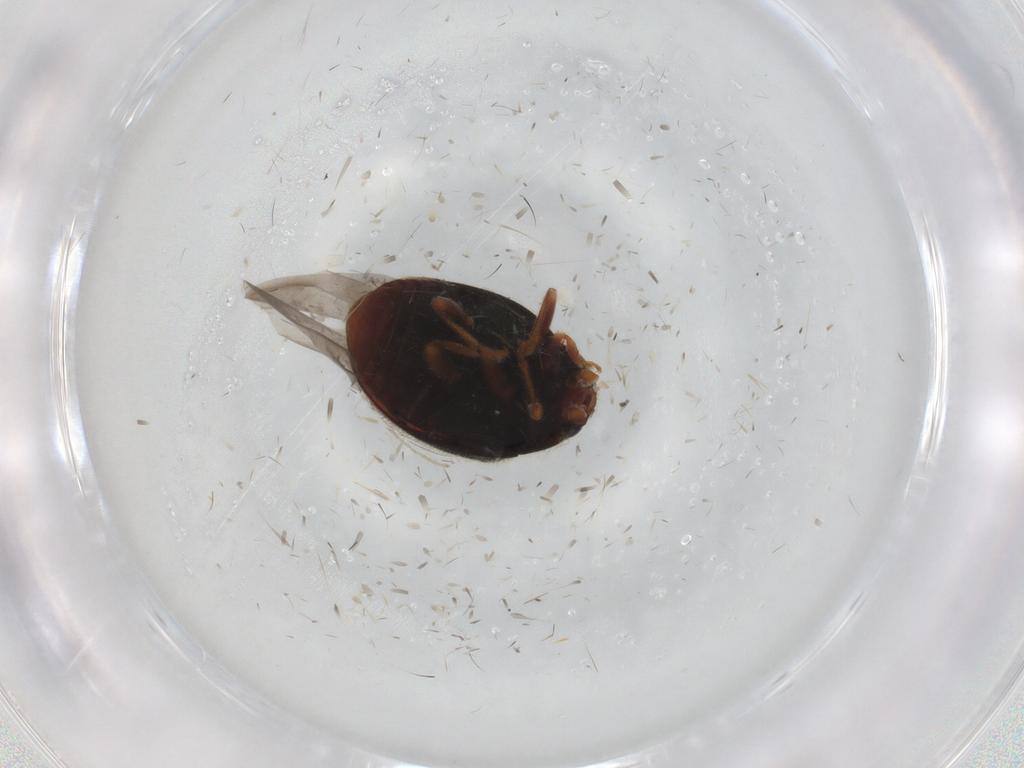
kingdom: Animalia
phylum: Arthropoda
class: Insecta
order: Coleoptera
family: Coccinellidae
